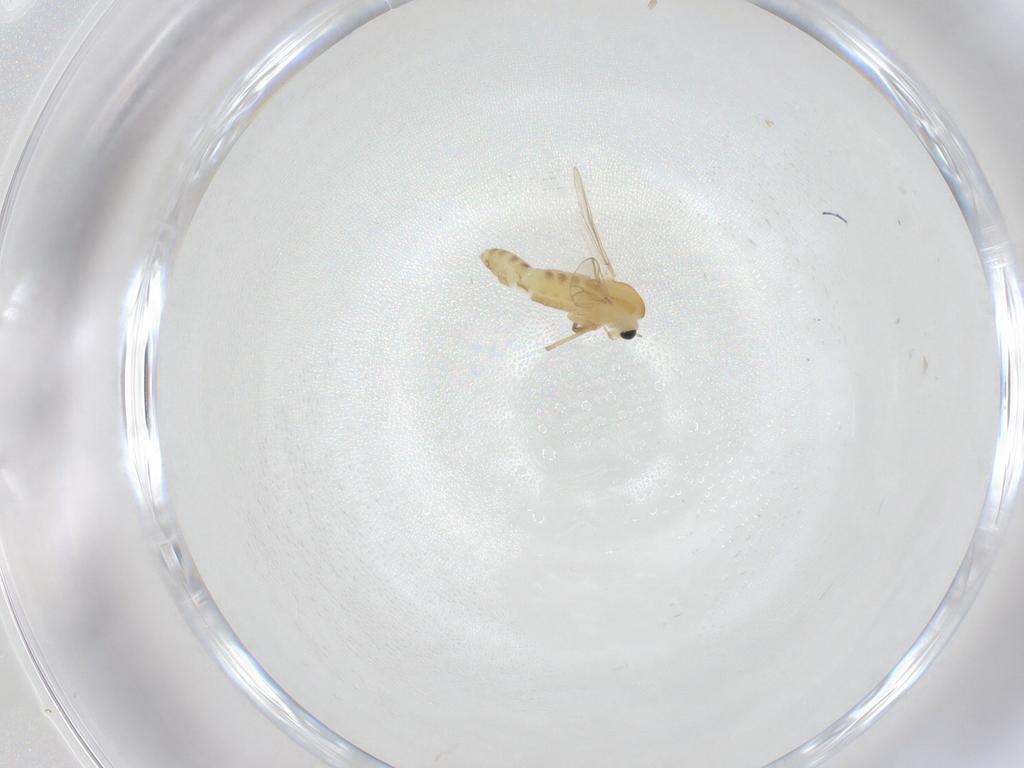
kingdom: Animalia
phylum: Arthropoda
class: Insecta
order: Diptera
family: Chironomidae
